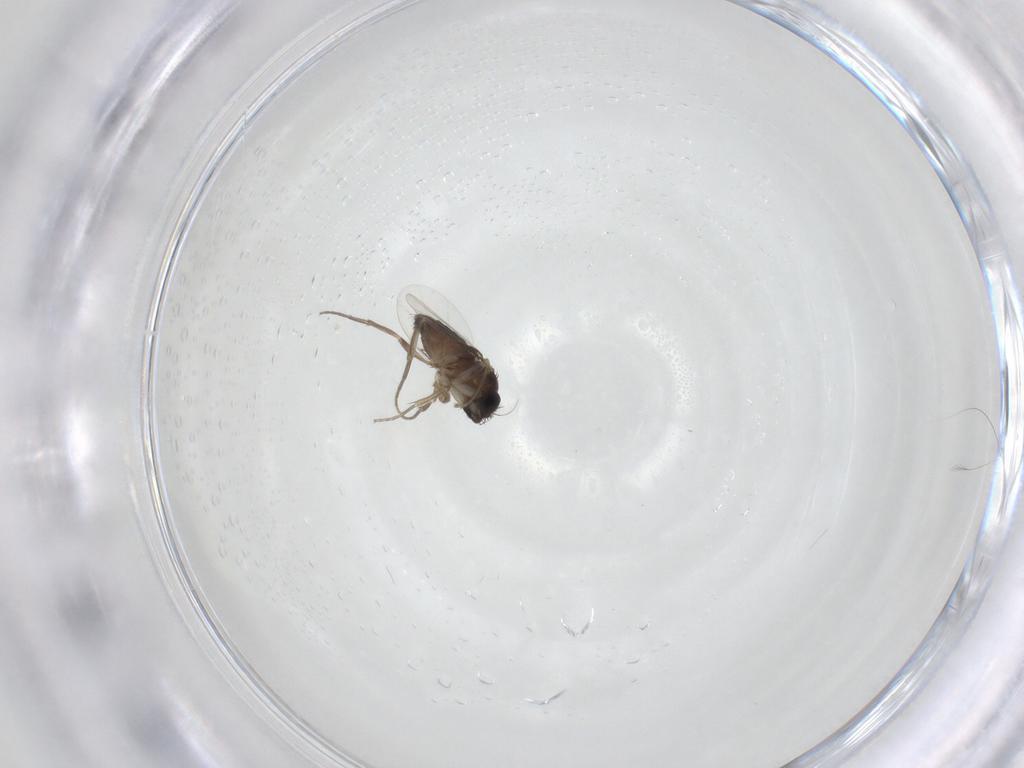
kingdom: Animalia
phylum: Arthropoda
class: Insecta
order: Diptera
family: Phoridae
